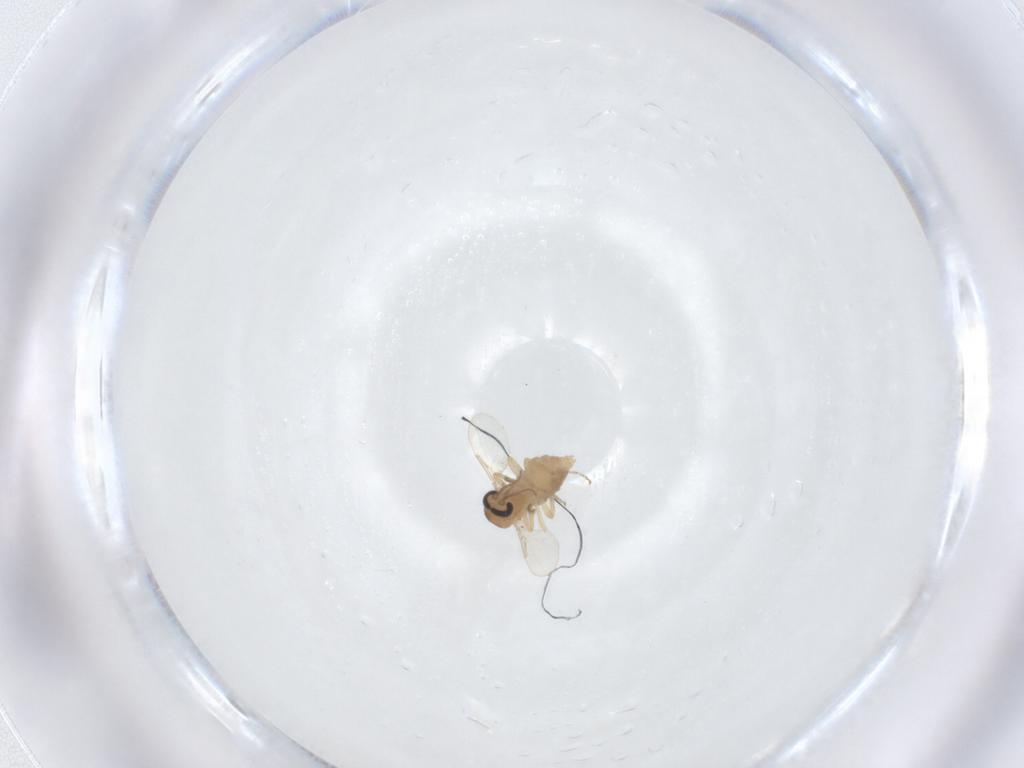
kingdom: Animalia
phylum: Arthropoda
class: Insecta
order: Diptera
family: Ceratopogonidae
